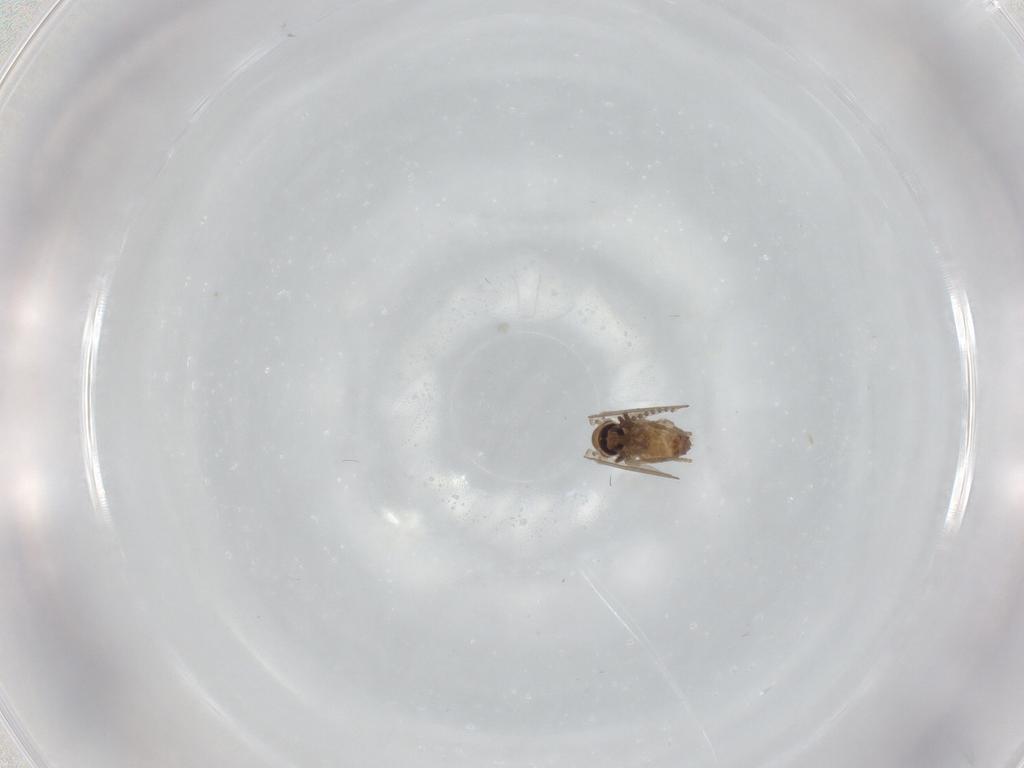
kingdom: Animalia
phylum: Arthropoda
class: Insecta
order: Diptera
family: Psychodidae
